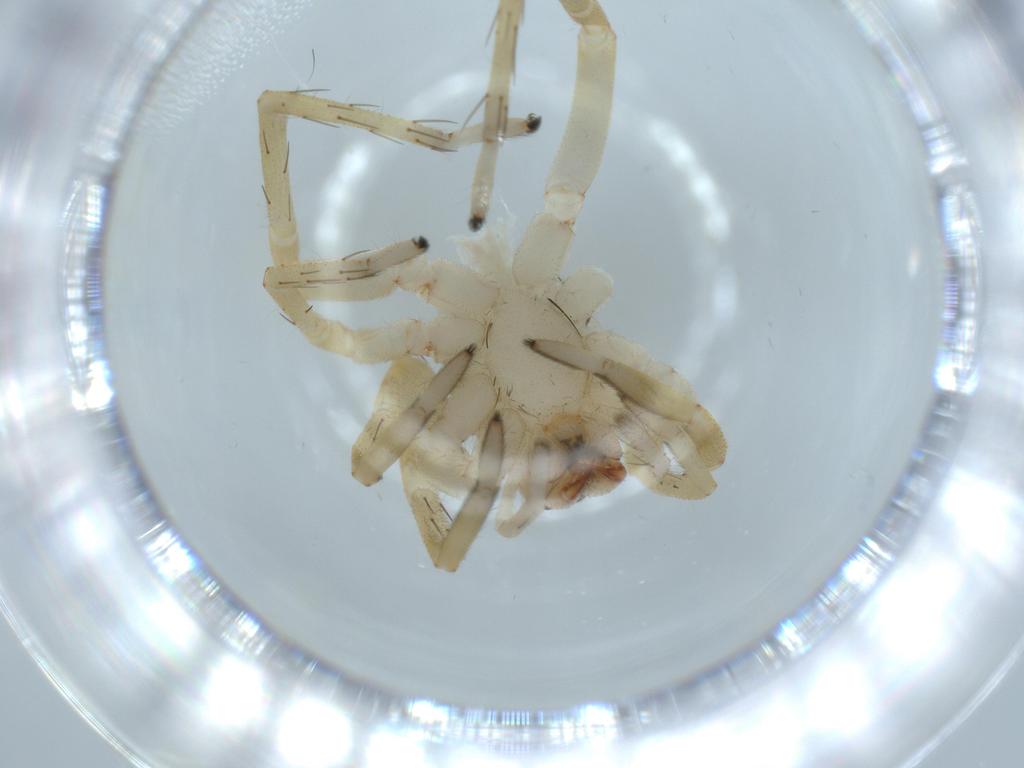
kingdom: Animalia
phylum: Arthropoda
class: Arachnida
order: Araneae
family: Linyphiidae
